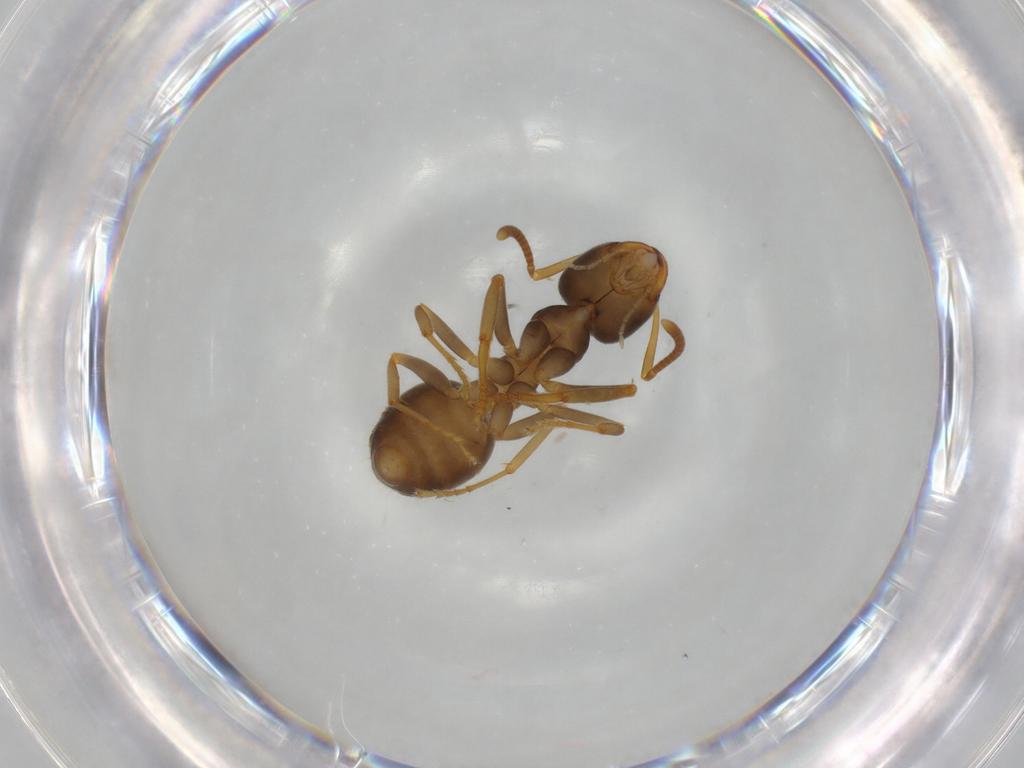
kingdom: Animalia
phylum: Arthropoda
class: Insecta
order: Hymenoptera
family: Formicidae
